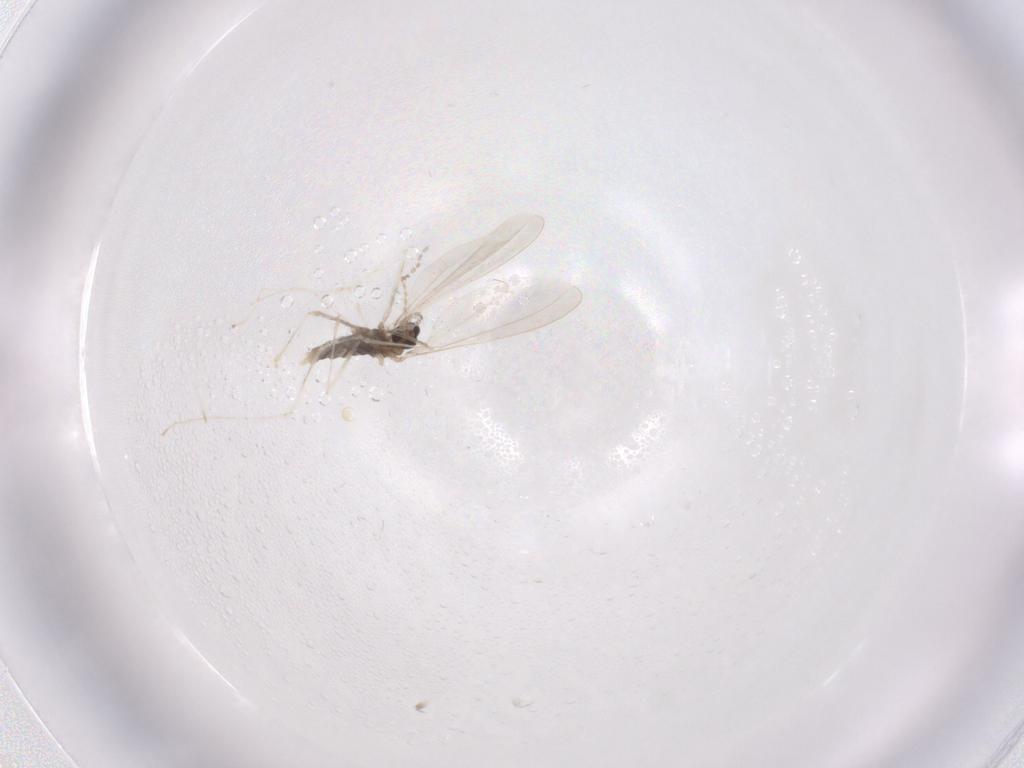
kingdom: Animalia
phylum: Arthropoda
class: Insecta
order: Diptera
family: Cecidomyiidae
